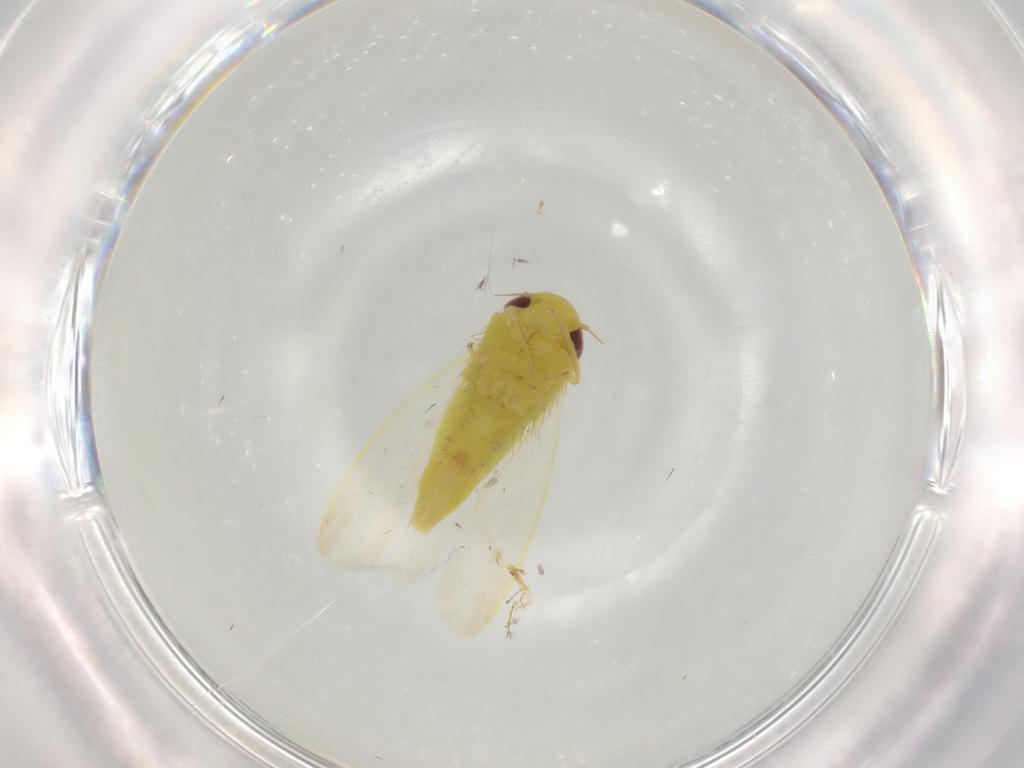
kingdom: Animalia
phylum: Arthropoda
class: Insecta
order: Hemiptera
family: Cicadellidae
